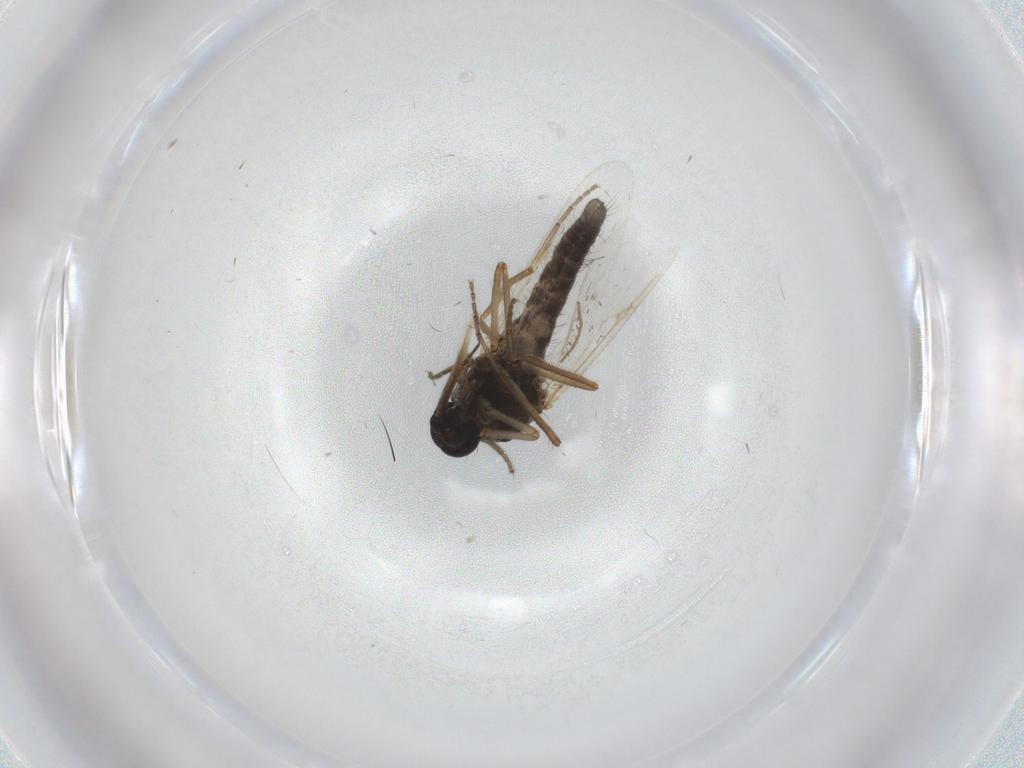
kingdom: Animalia
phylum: Arthropoda
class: Insecta
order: Diptera
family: Ceratopogonidae
